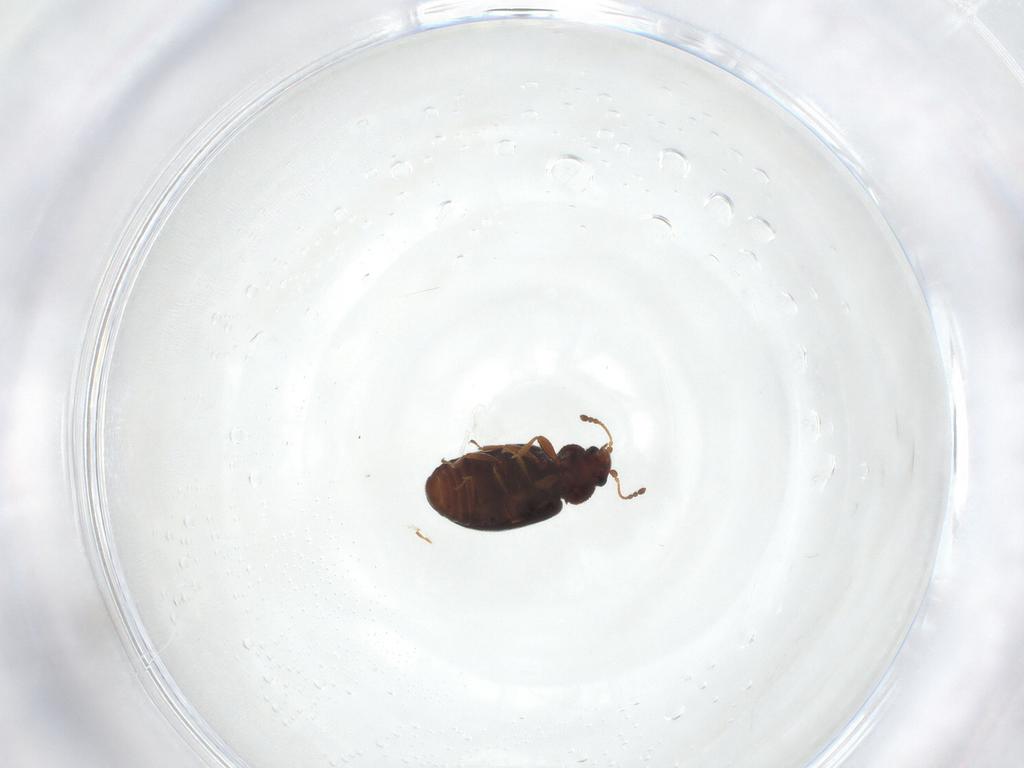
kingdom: Animalia
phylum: Arthropoda
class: Insecta
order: Coleoptera
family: Latridiidae
